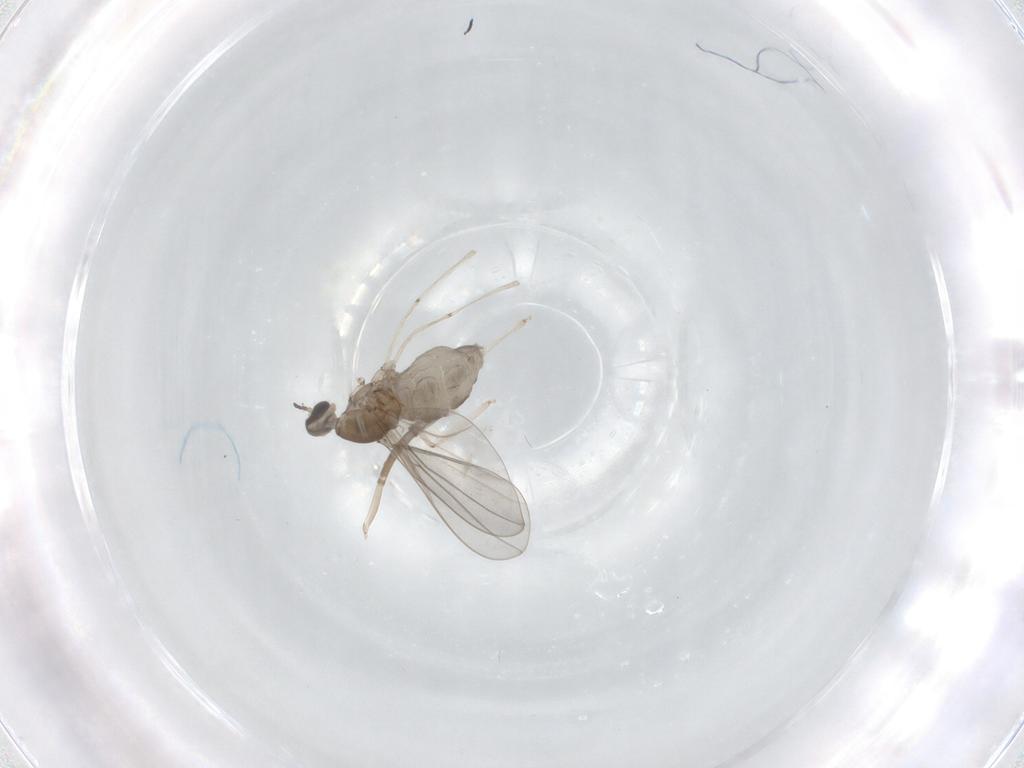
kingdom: Animalia
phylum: Arthropoda
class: Insecta
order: Diptera
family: Cecidomyiidae
